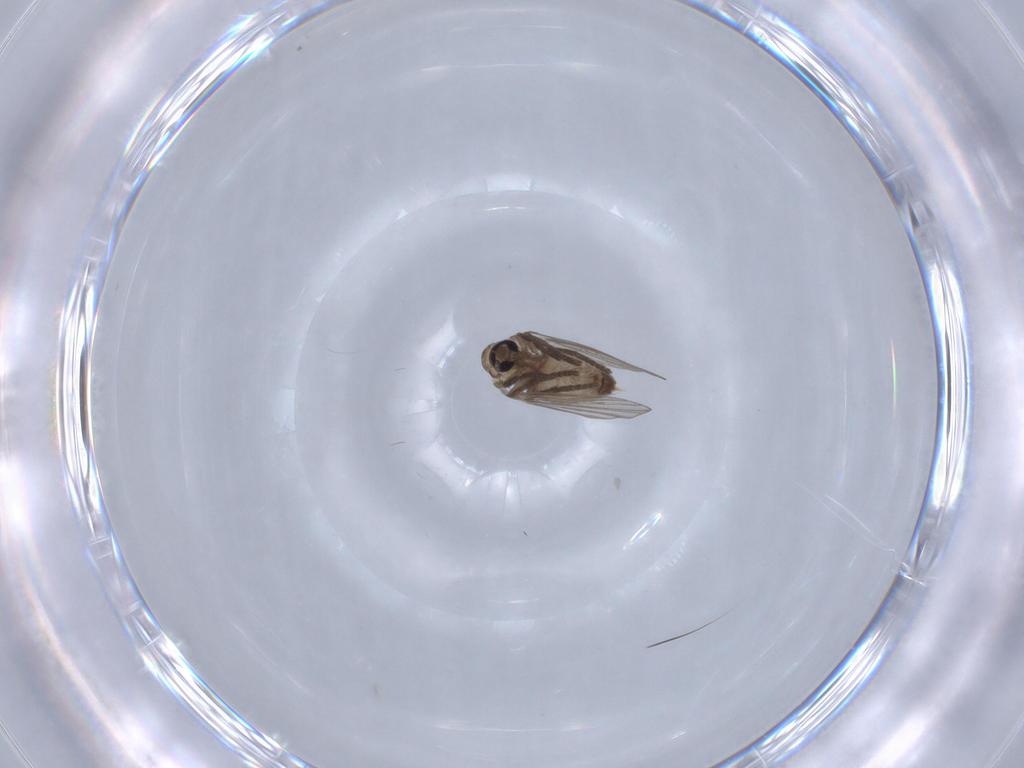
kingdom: Animalia
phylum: Arthropoda
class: Insecta
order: Diptera
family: Psychodidae
